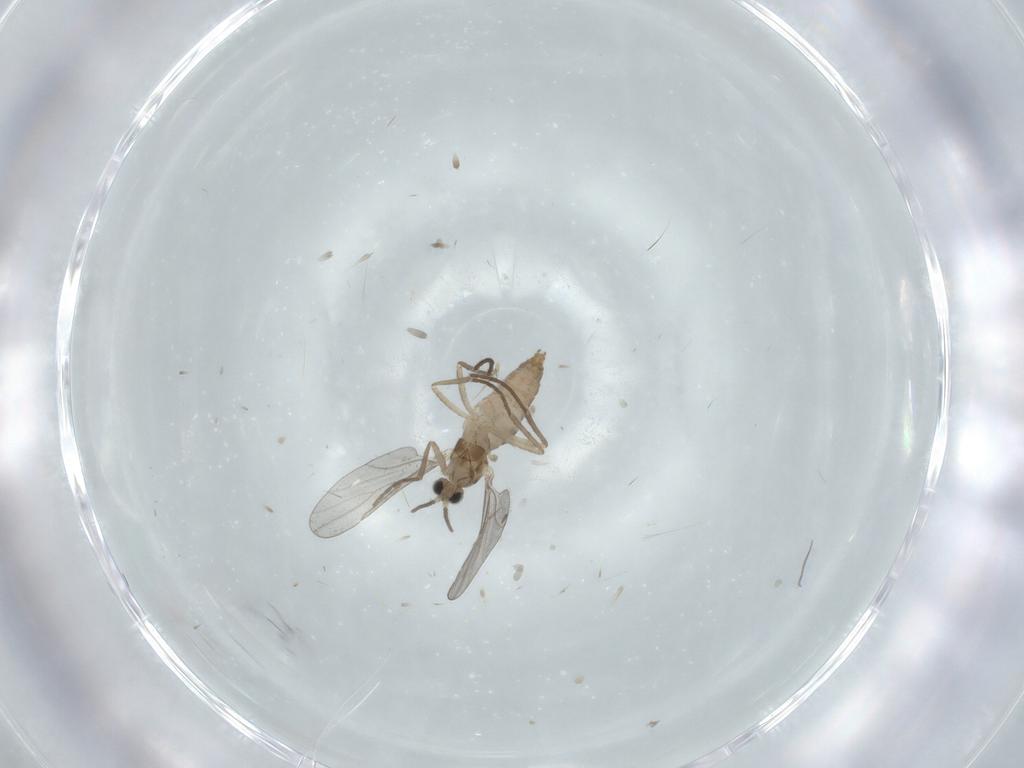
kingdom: Animalia
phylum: Arthropoda
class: Insecta
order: Diptera
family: Cecidomyiidae
